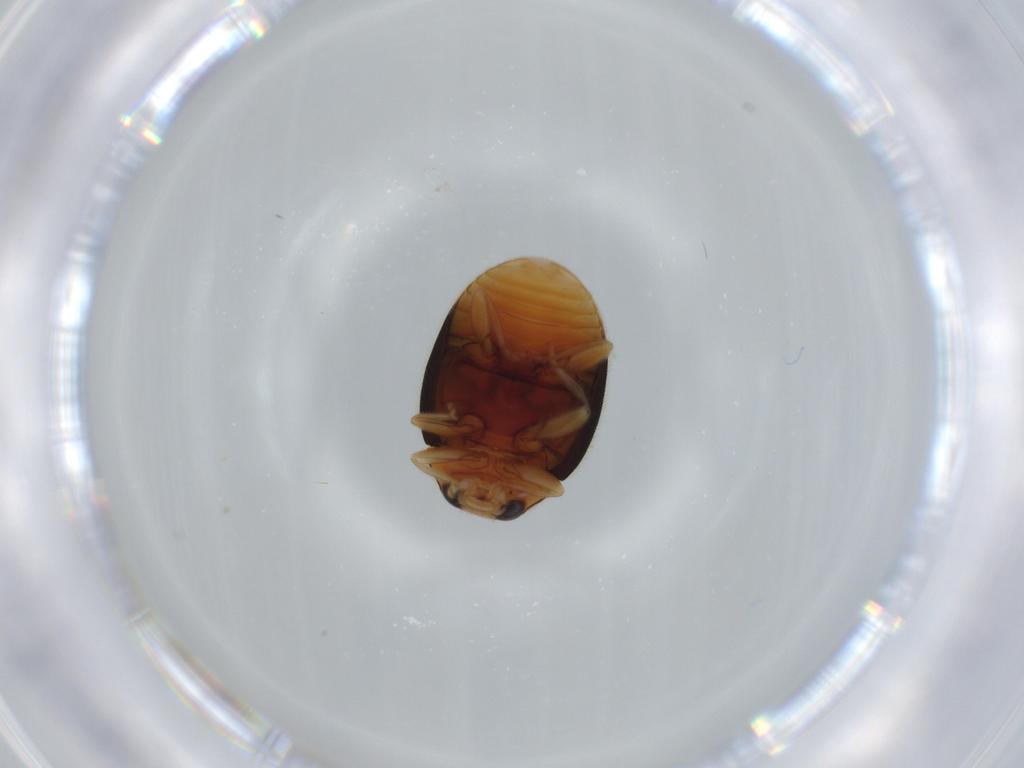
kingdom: Animalia
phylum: Arthropoda
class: Insecta
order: Coleoptera
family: Coccinellidae
